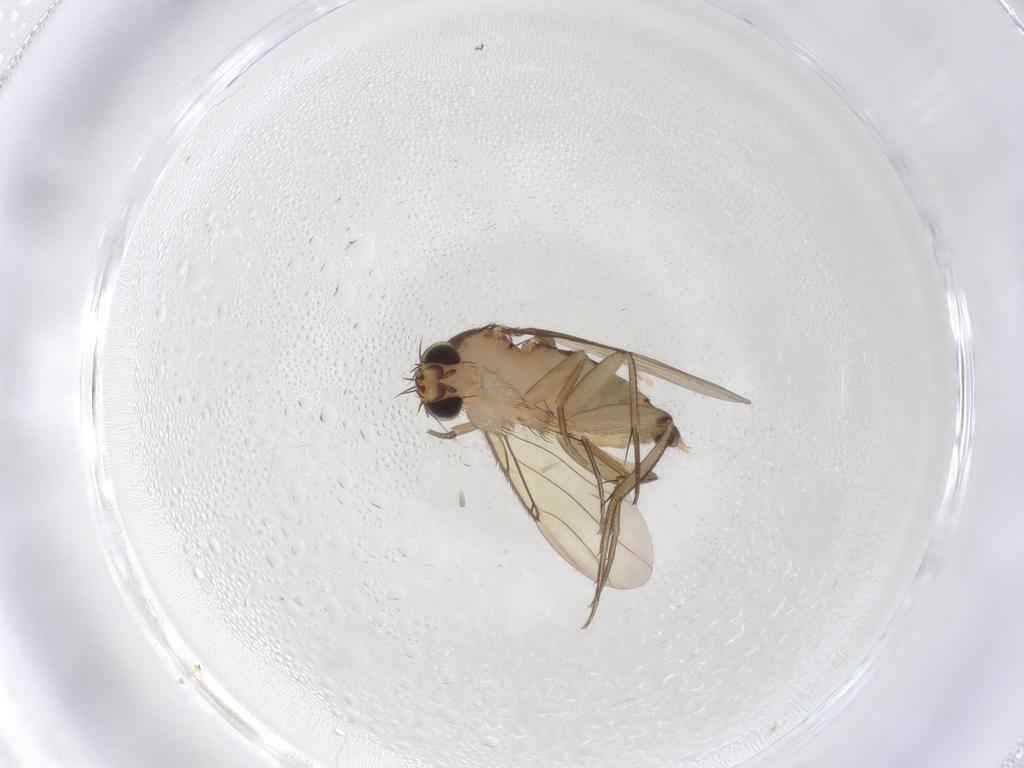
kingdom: Animalia
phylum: Arthropoda
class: Insecta
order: Diptera
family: Phoridae
